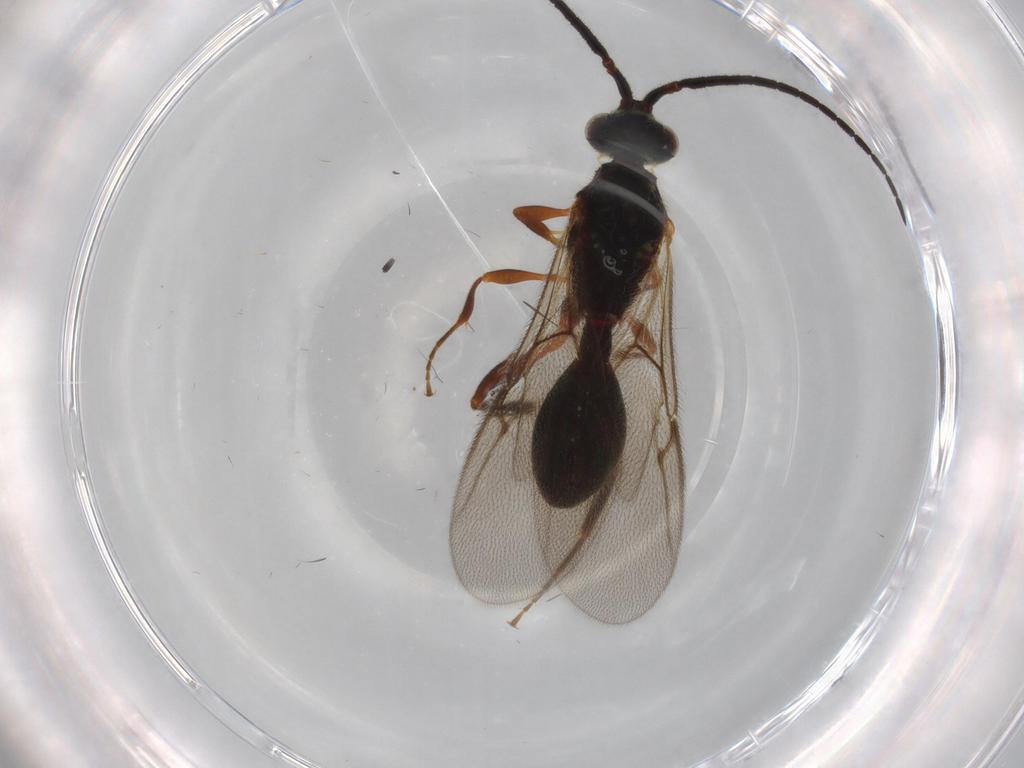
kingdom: Animalia
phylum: Arthropoda
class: Insecta
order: Hymenoptera
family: Diapriidae
